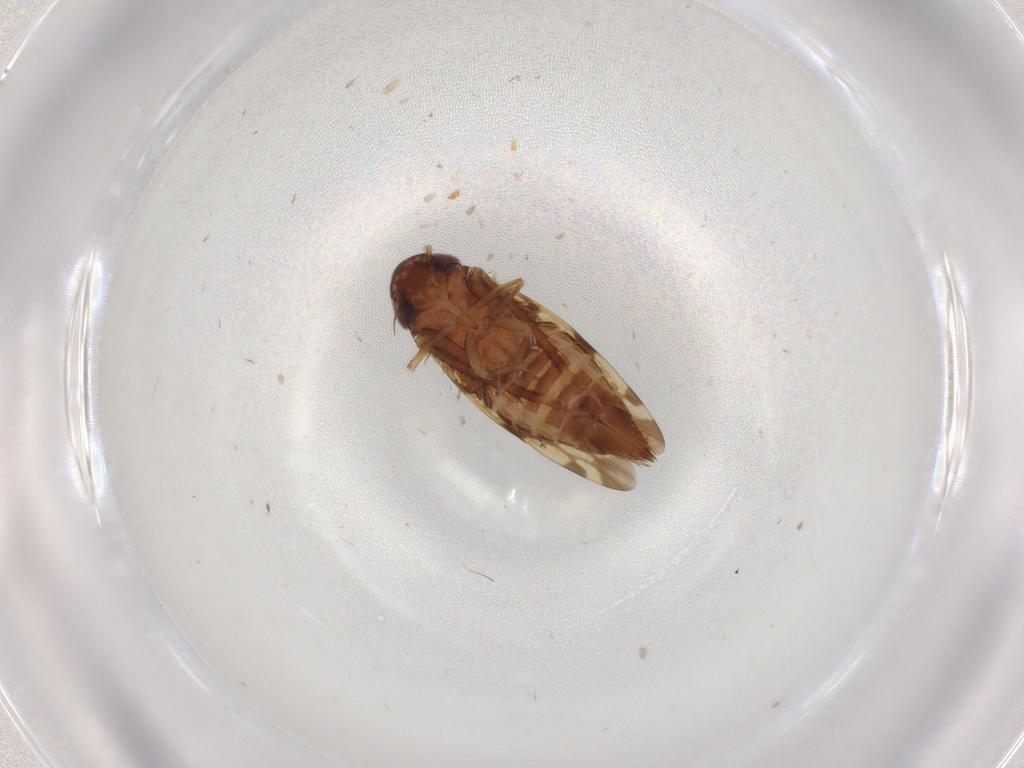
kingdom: Animalia
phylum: Arthropoda
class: Insecta
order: Hemiptera
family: Cicadellidae
